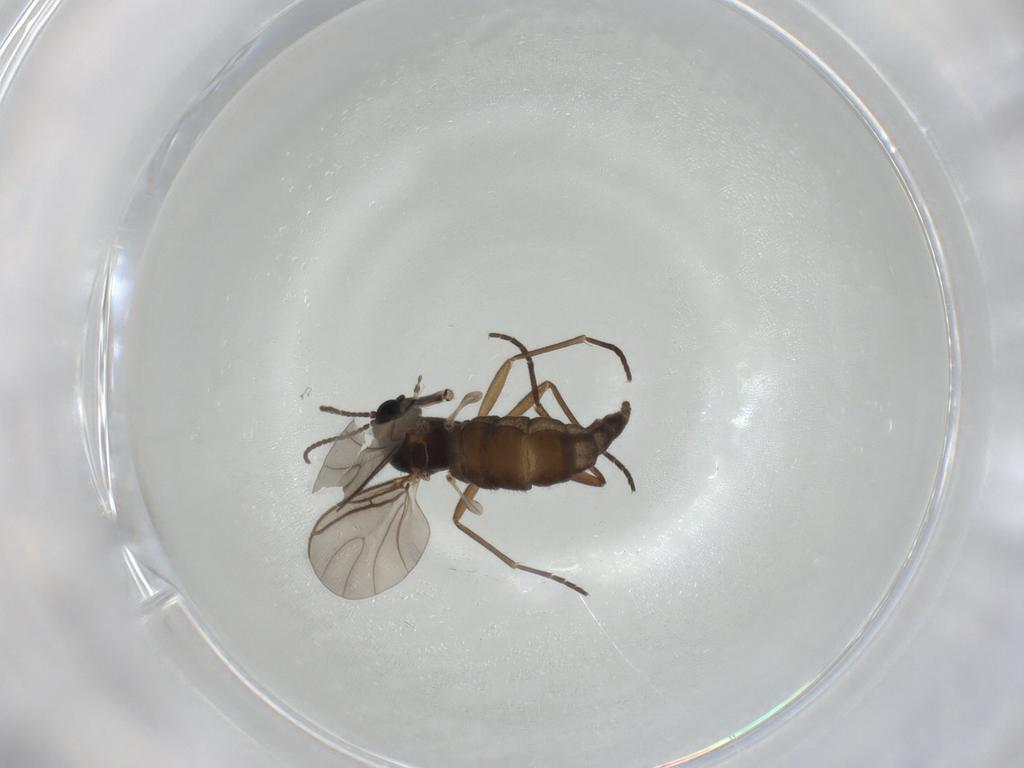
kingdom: Animalia
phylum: Arthropoda
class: Insecta
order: Diptera
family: Sciaridae
